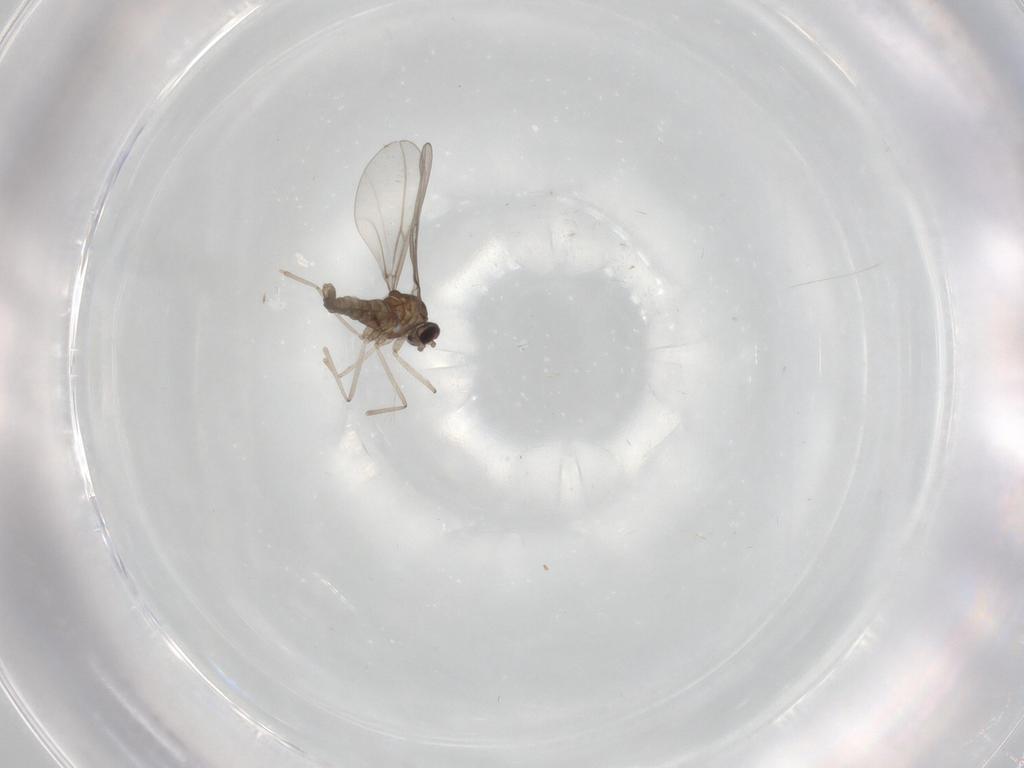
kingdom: Animalia
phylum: Arthropoda
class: Insecta
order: Diptera
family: Cecidomyiidae
